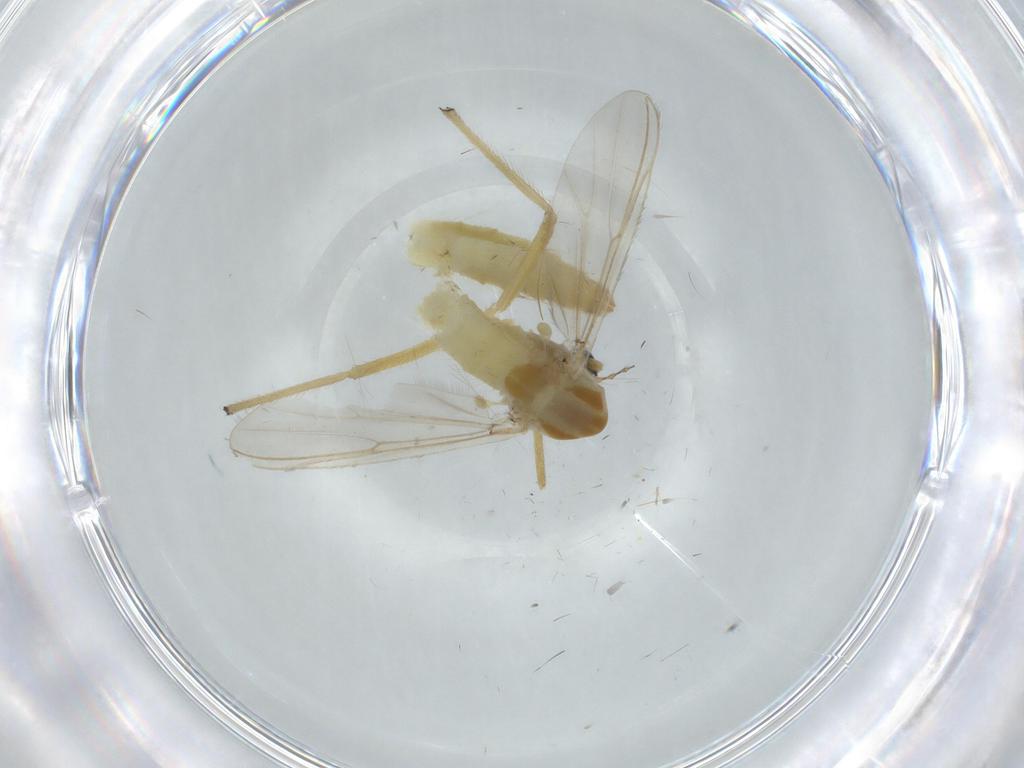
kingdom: Animalia
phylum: Arthropoda
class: Insecta
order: Diptera
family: Chironomidae
